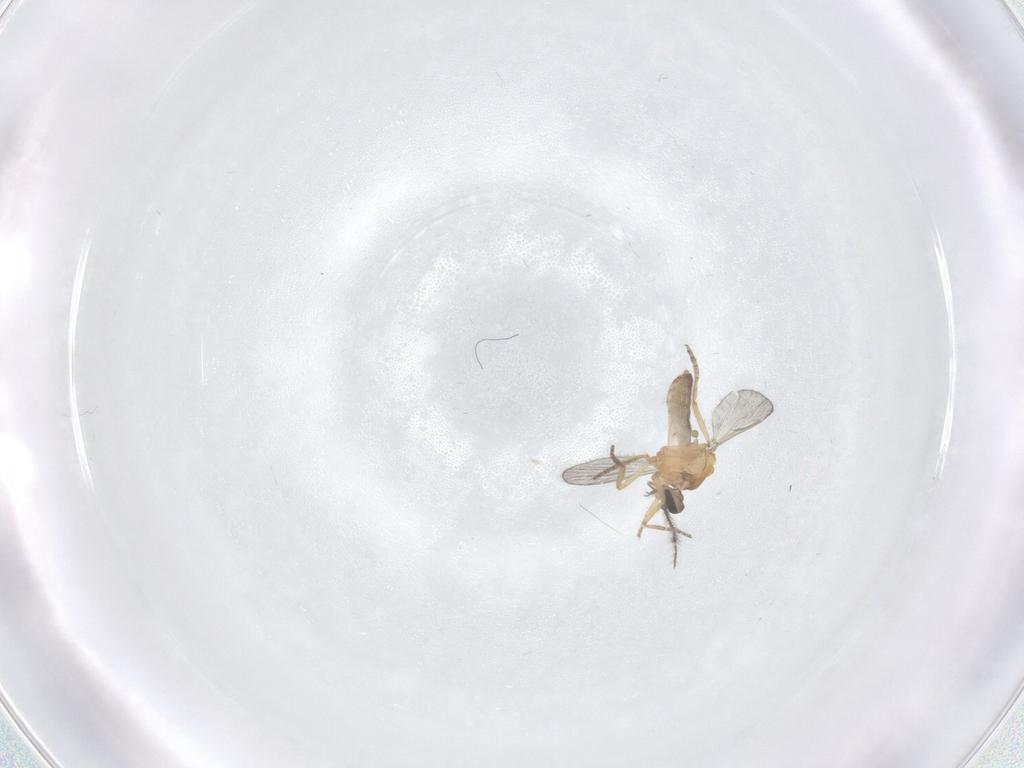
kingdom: Animalia
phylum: Arthropoda
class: Insecta
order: Diptera
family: Ceratopogonidae
